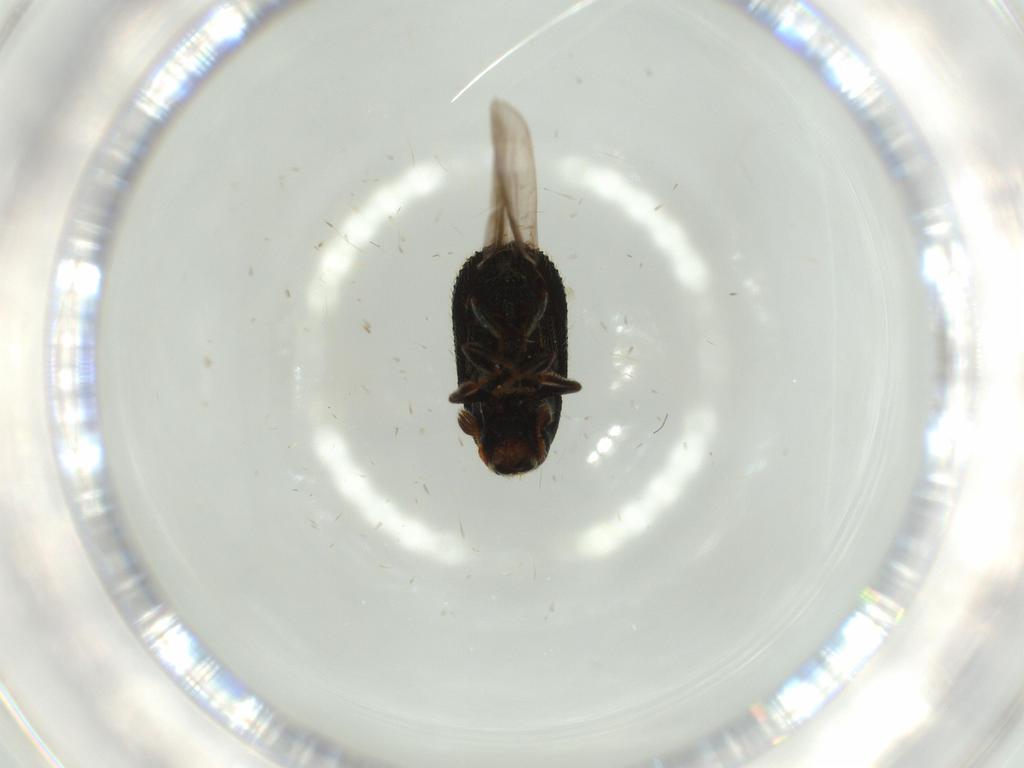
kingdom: Animalia
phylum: Arthropoda
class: Insecta
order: Coleoptera
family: Curculionidae
